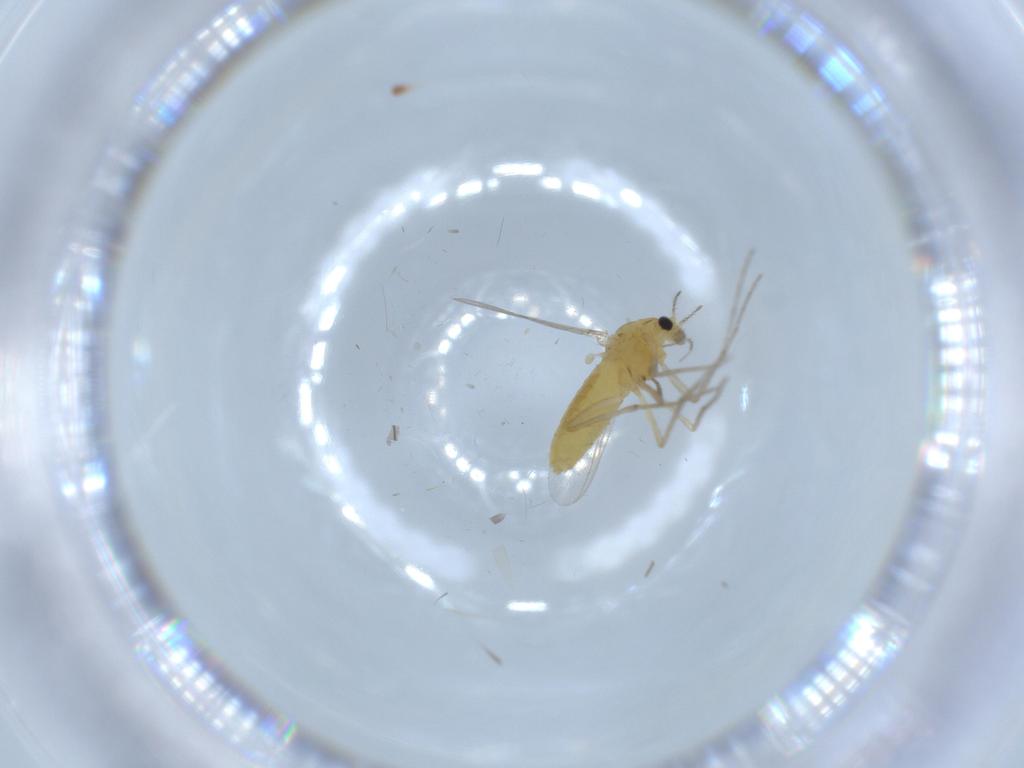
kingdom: Animalia
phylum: Arthropoda
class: Insecta
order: Diptera
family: Chironomidae
